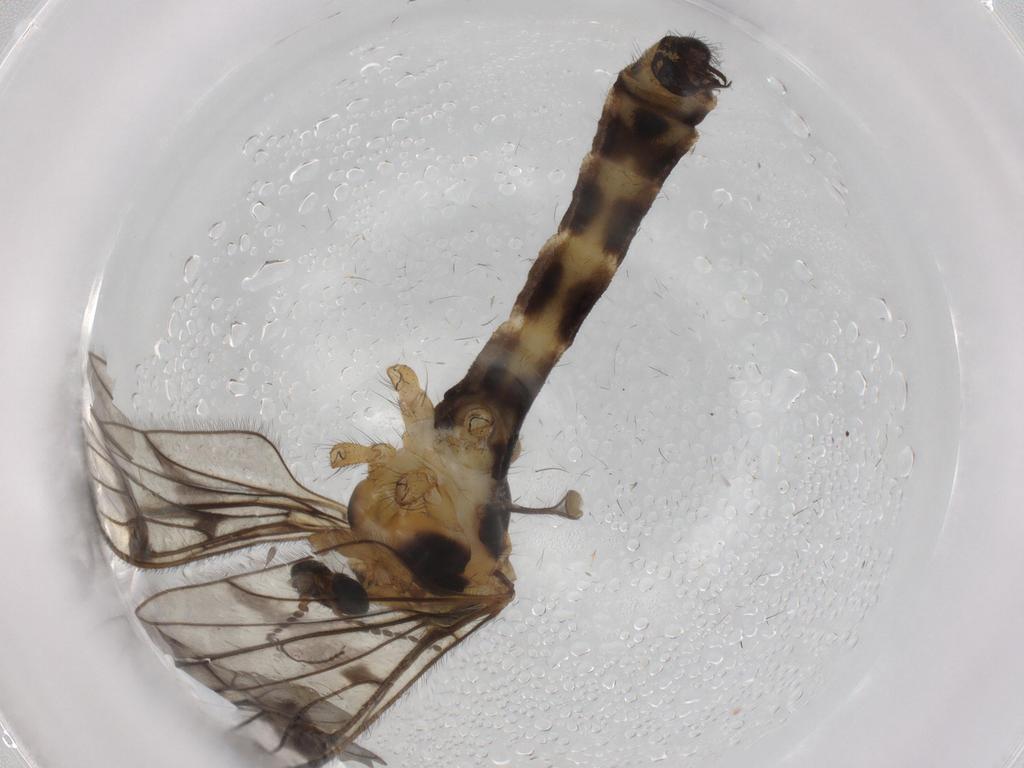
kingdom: Animalia
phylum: Arthropoda
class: Insecta
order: Diptera
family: Limoniidae
